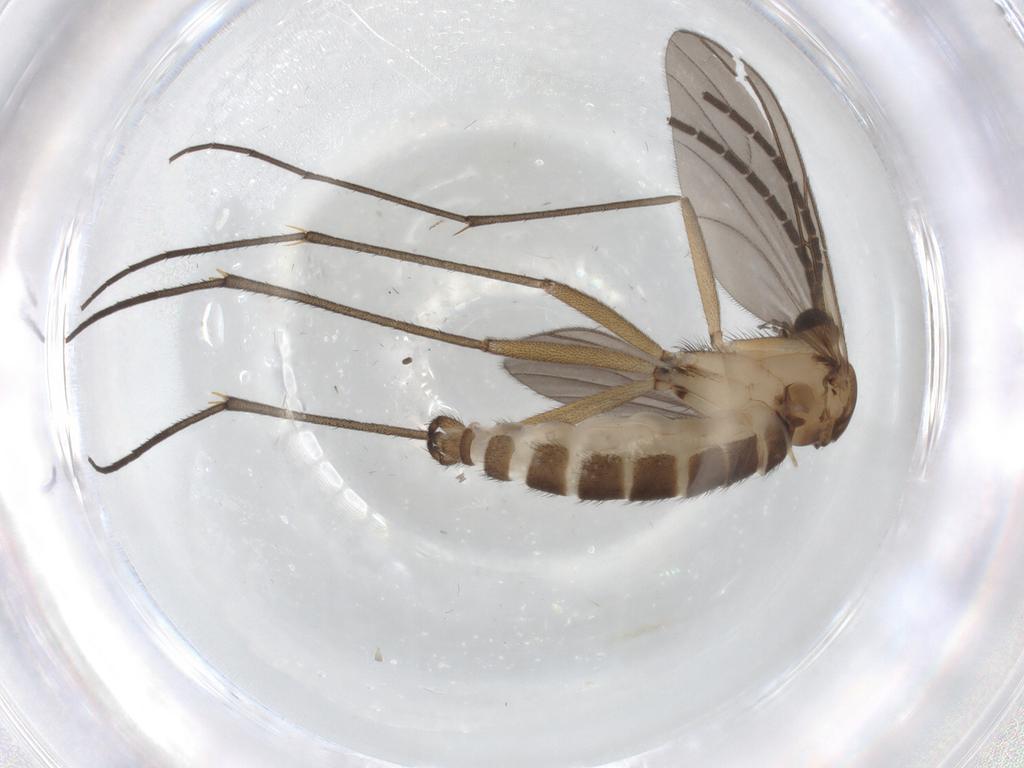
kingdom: Animalia
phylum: Arthropoda
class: Insecta
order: Diptera
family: Psychodidae
